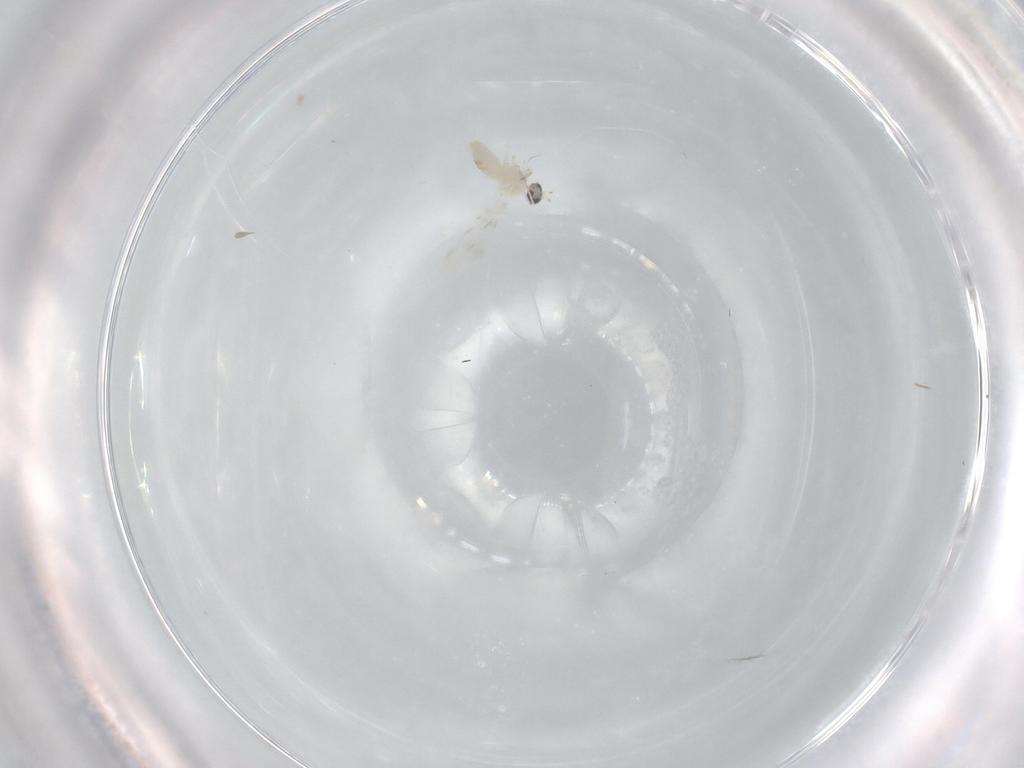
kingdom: Animalia
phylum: Arthropoda
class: Insecta
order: Diptera
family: Cecidomyiidae
